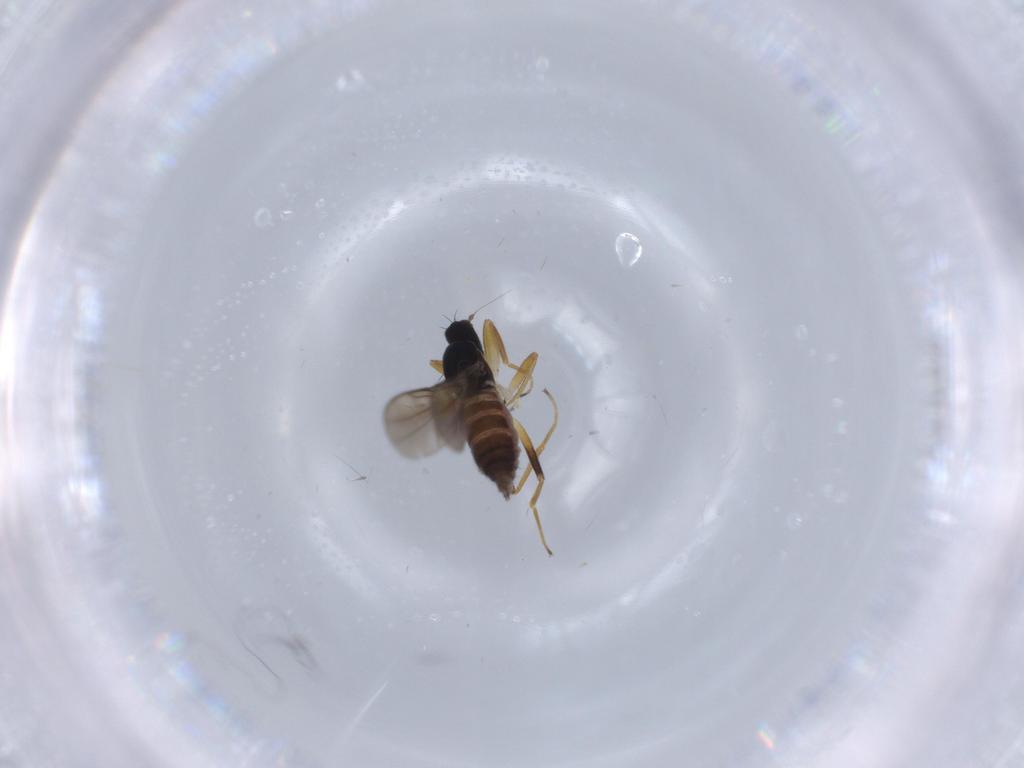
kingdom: Animalia
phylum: Arthropoda
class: Insecta
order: Diptera
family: Hybotidae
